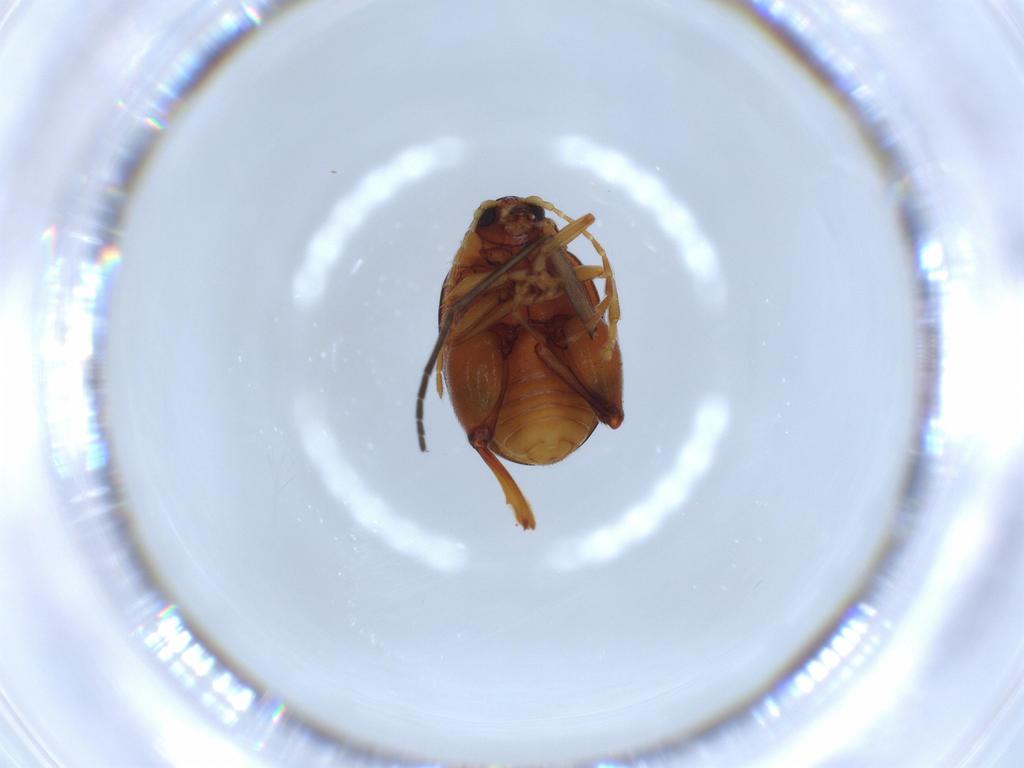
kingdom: Animalia
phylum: Arthropoda
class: Insecta
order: Coleoptera
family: Chrysomelidae
